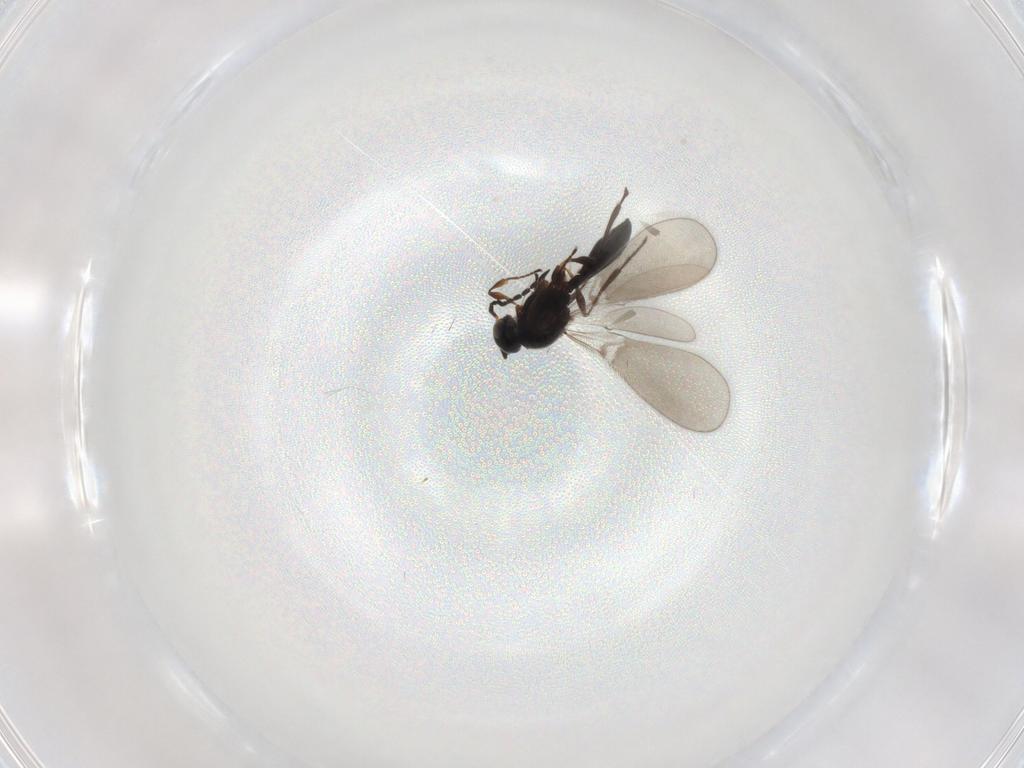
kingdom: Animalia
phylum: Arthropoda
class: Insecta
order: Hymenoptera
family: Platygastridae
